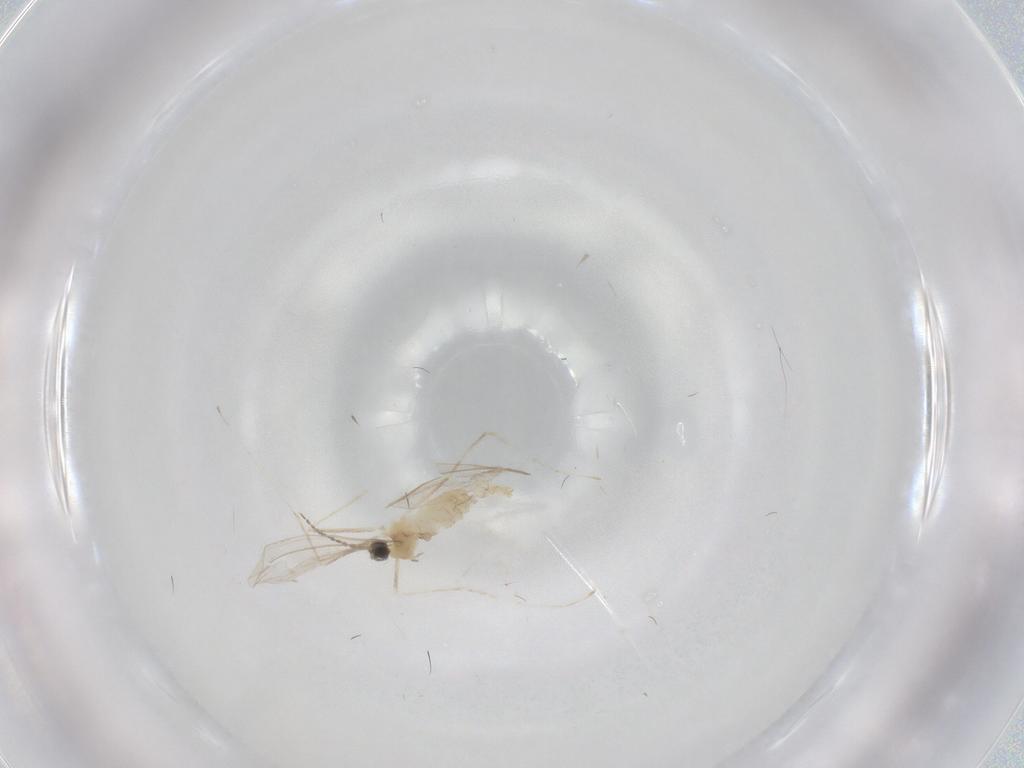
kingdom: Animalia
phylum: Arthropoda
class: Insecta
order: Diptera
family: Cecidomyiidae
